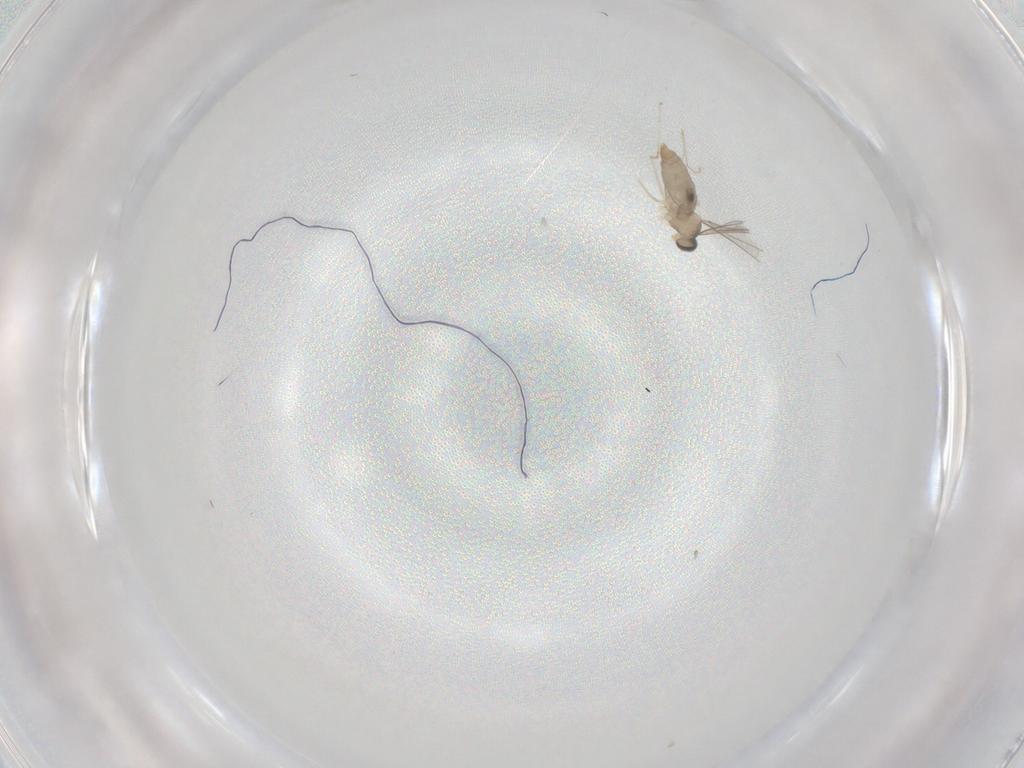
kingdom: Animalia
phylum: Arthropoda
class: Insecta
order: Diptera
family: Cecidomyiidae
